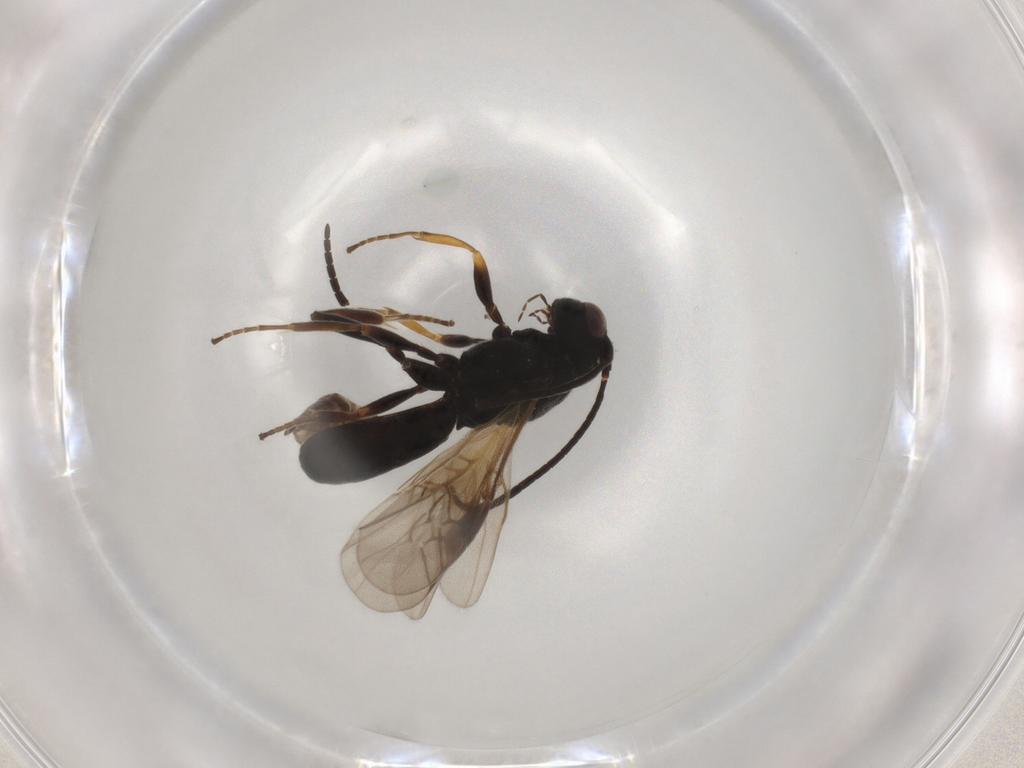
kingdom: Animalia
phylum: Arthropoda
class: Insecta
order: Hymenoptera
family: Braconidae
